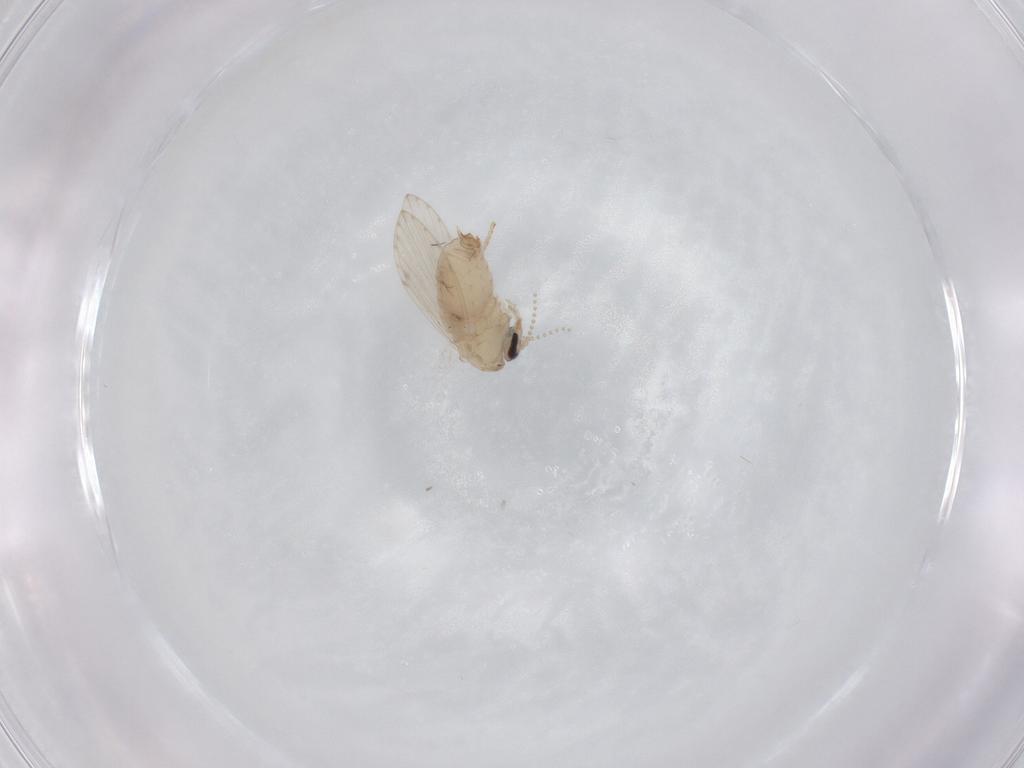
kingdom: Animalia
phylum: Arthropoda
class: Insecta
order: Diptera
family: Psychodidae
